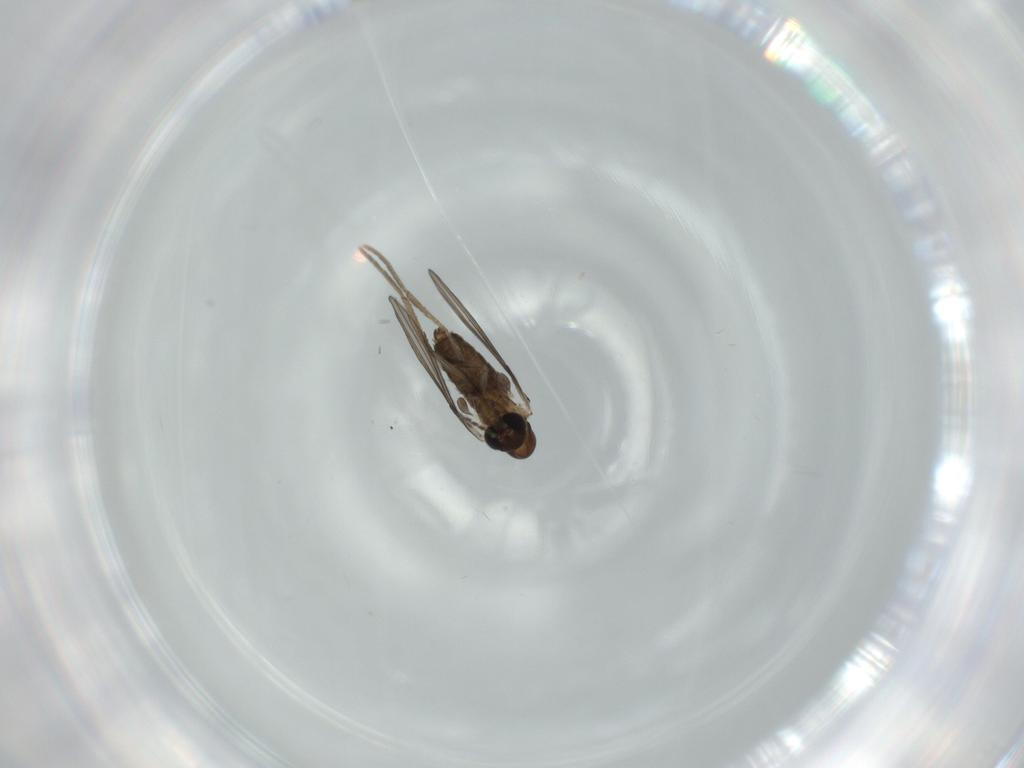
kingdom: Animalia
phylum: Arthropoda
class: Insecta
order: Diptera
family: Psychodidae
